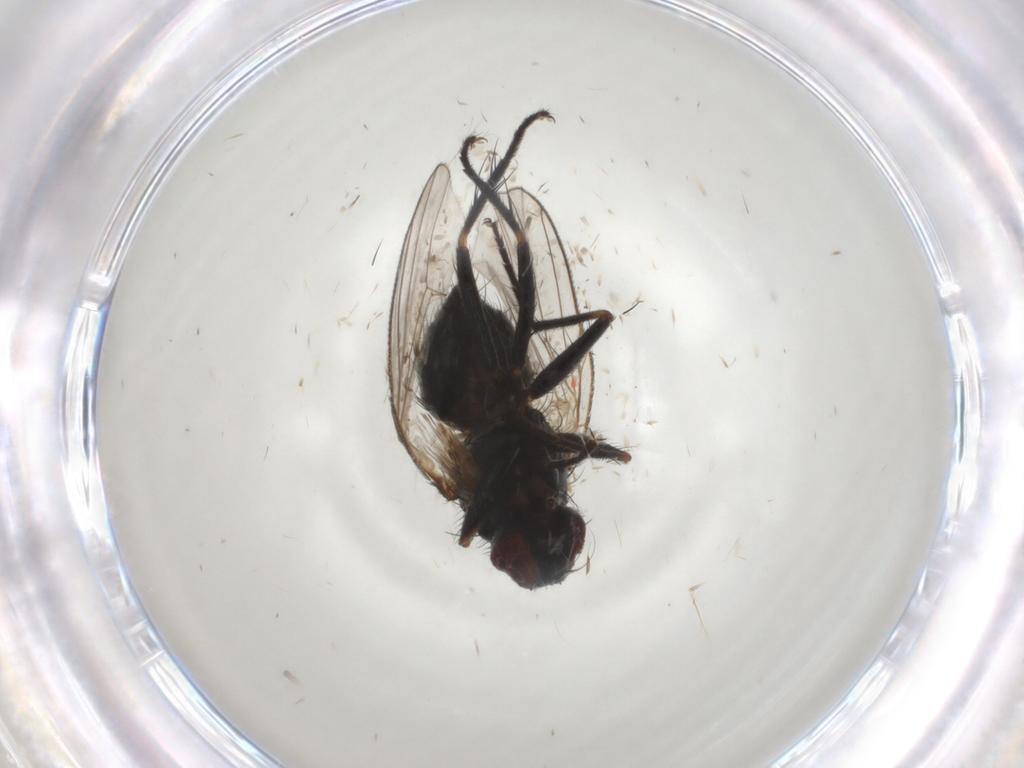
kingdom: Animalia
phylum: Arthropoda
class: Insecta
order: Diptera
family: Muscidae
